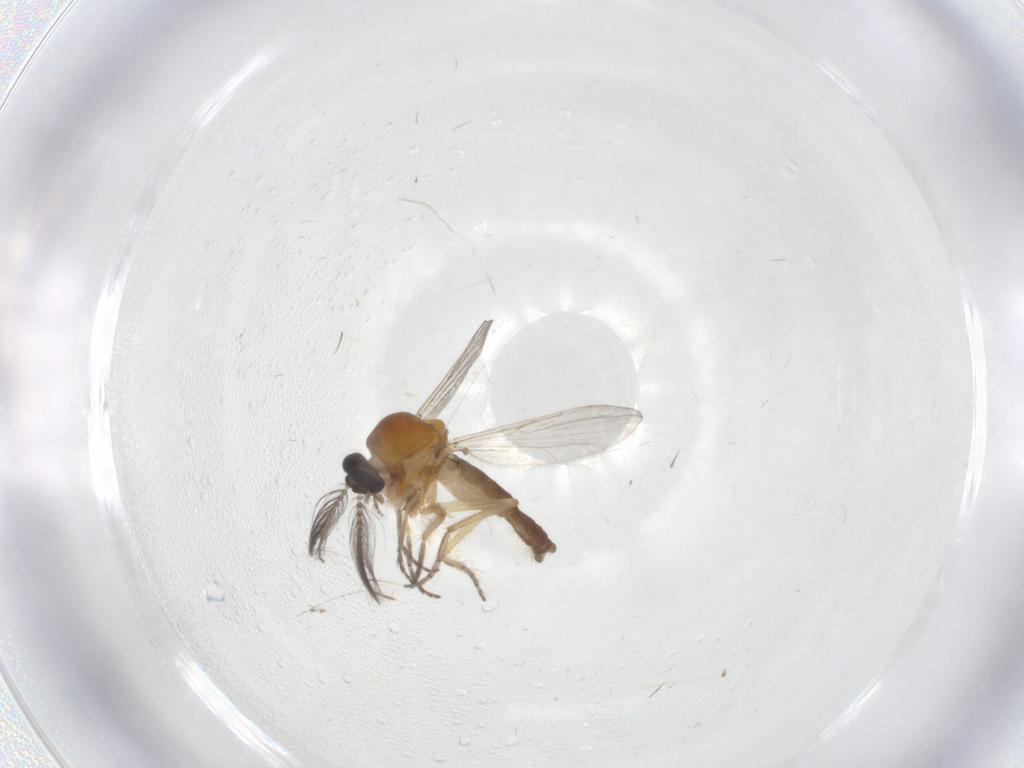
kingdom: Animalia
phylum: Arthropoda
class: Insecta
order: Diptera
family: Ceratopogonidae
